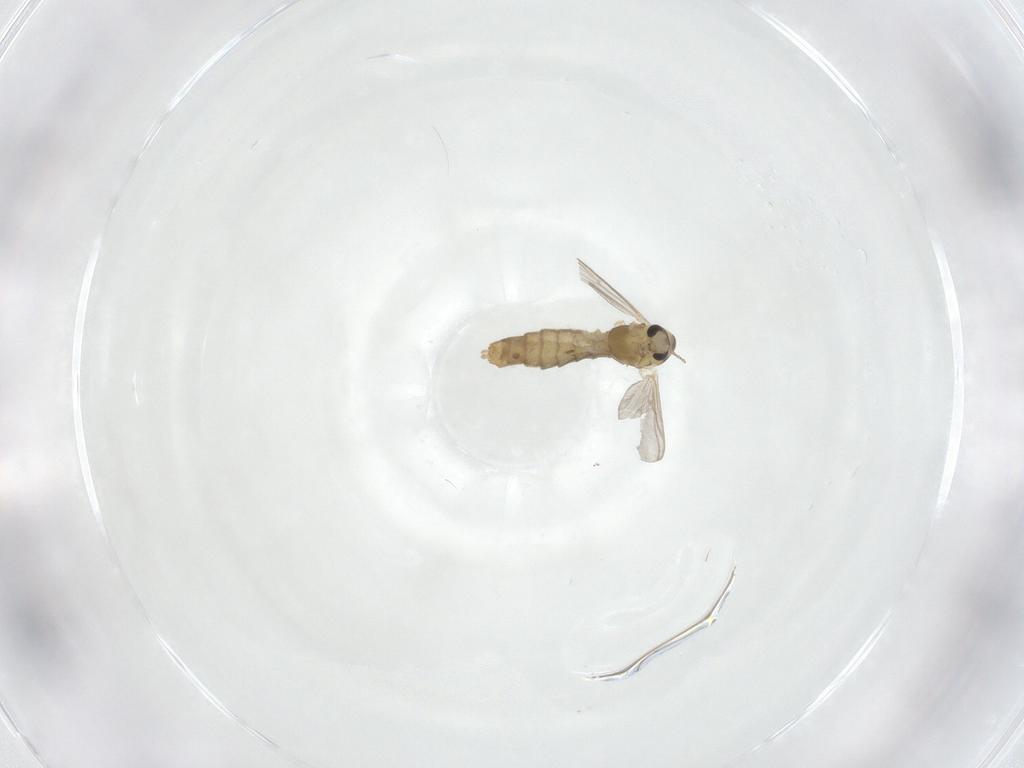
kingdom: Animalia
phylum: Arthropoda
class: Insecta
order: Diptera
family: Chironomidae
